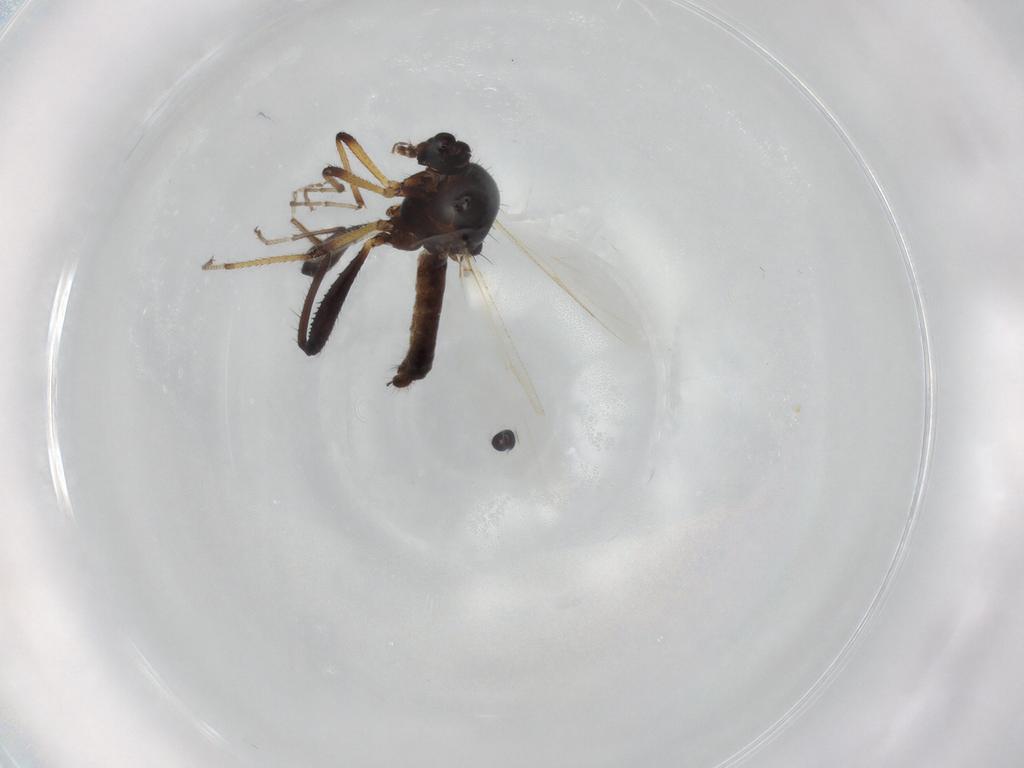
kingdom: Animalia
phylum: Arthropoda
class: Insecta
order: Diptera
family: Ceratopogonidae
